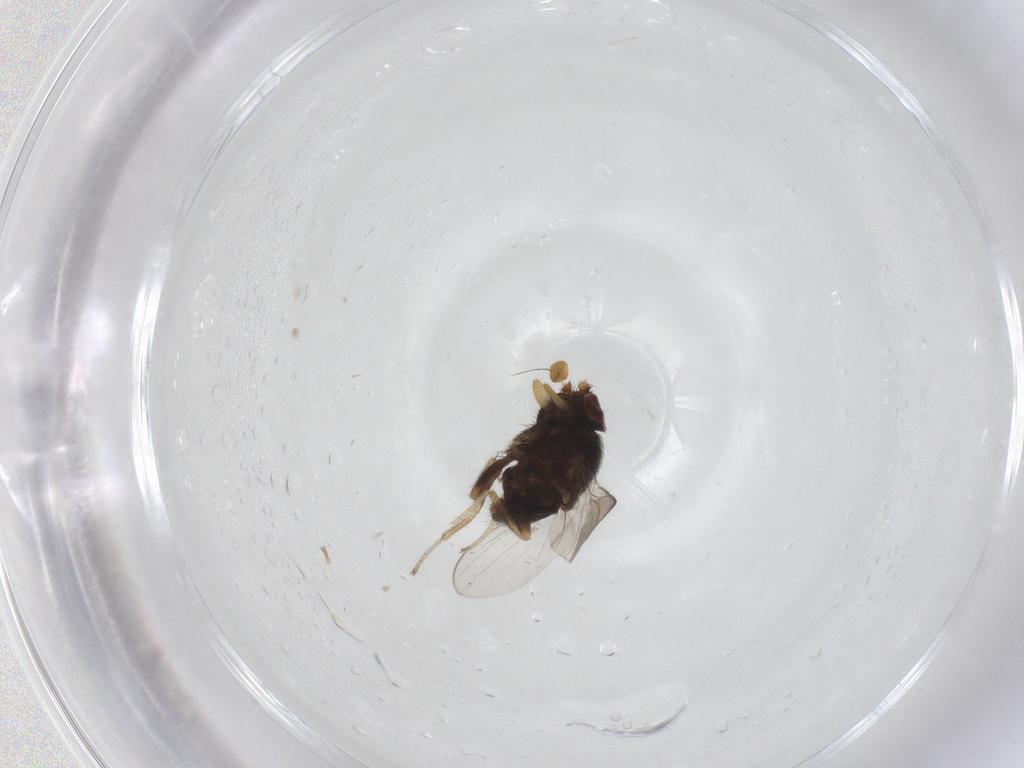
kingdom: Animalia
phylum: Arthropoda
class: Insecta
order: Diptera
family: Milichiidae
